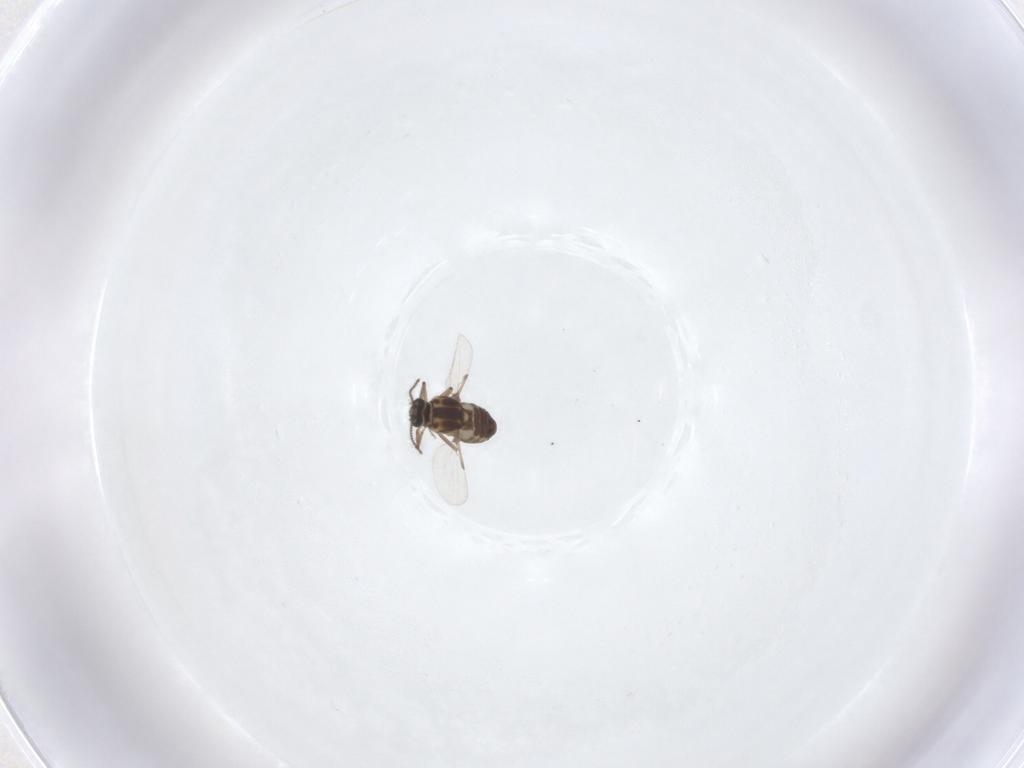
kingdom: Animalia
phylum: Arthropoda
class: Insecta
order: Diptera
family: Ceratopogonidae
